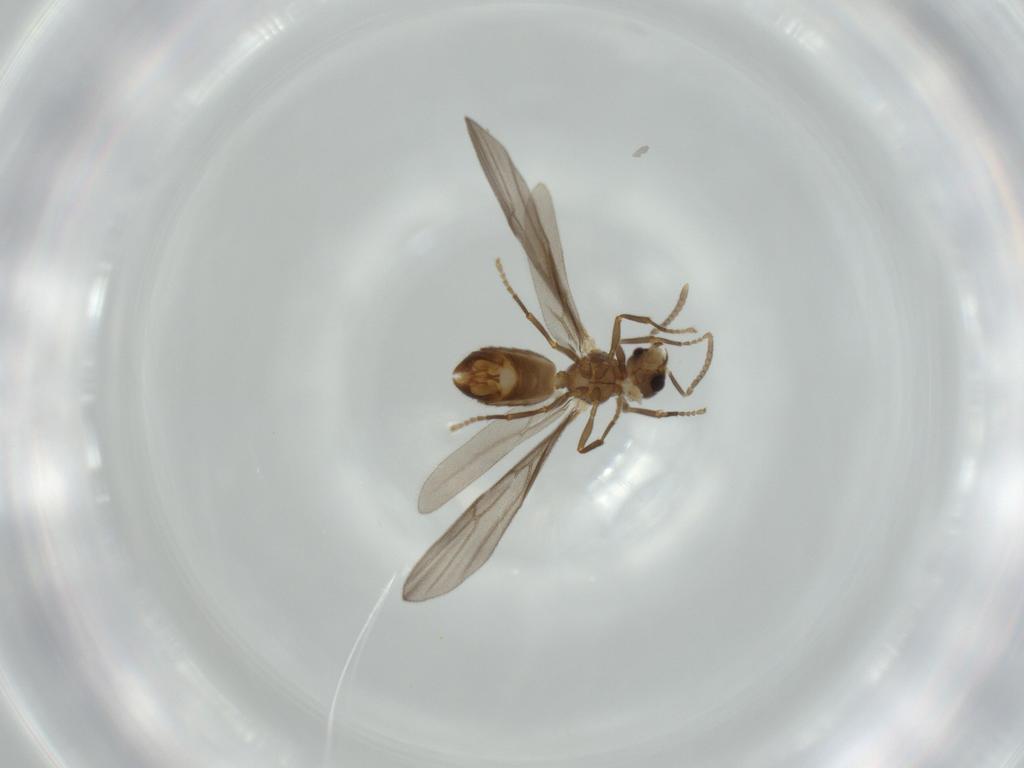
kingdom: Animalia
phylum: Arthropoda
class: Insecta
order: Hymenoptera
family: Formicidae
